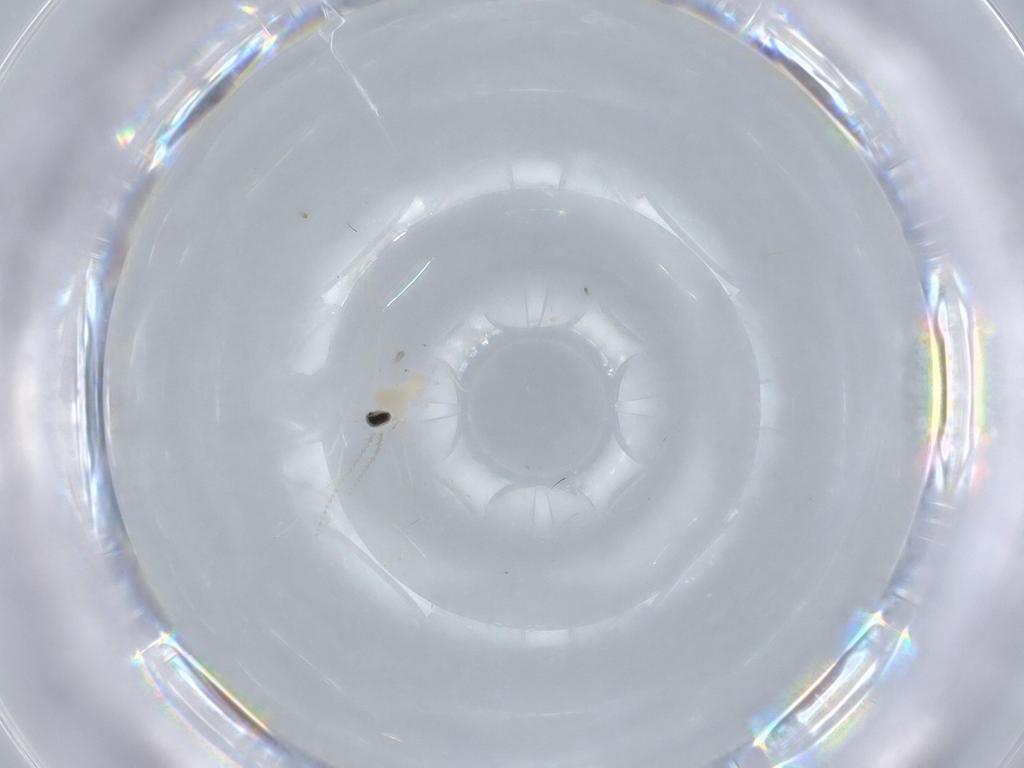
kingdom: Animalia
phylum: Arthropoda
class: Insecta
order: Diptera
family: Cecidomyiidae
